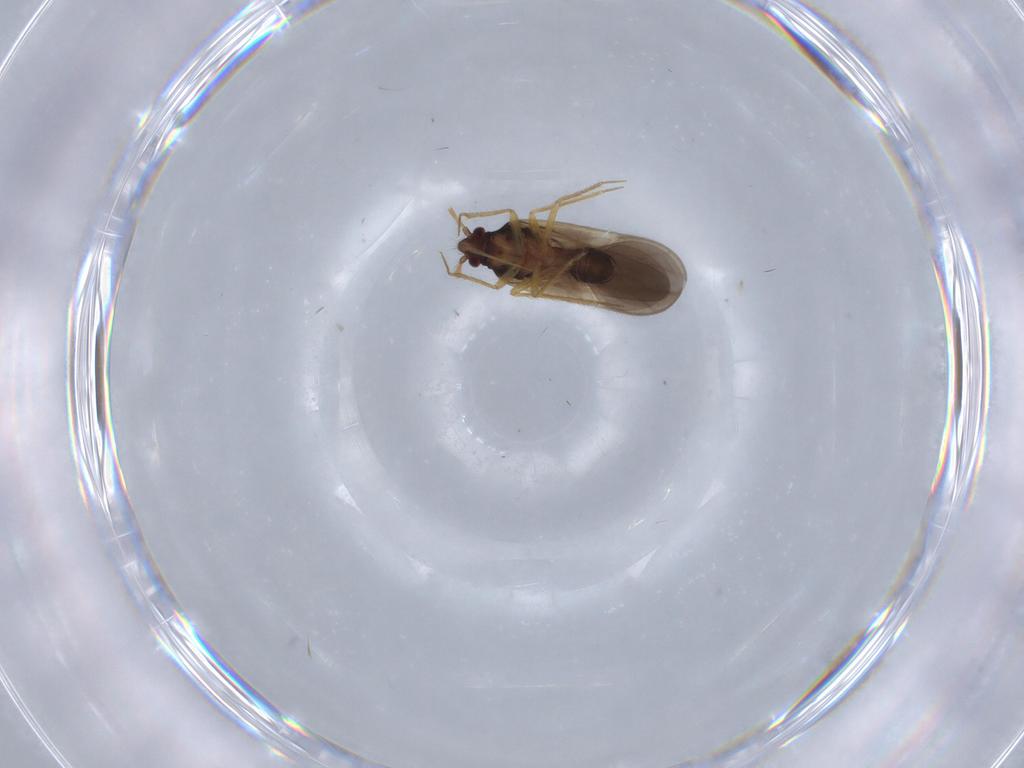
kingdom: Animalia
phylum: Arthropoda
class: Insecta
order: Hemiptera
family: Ceratocombidae
